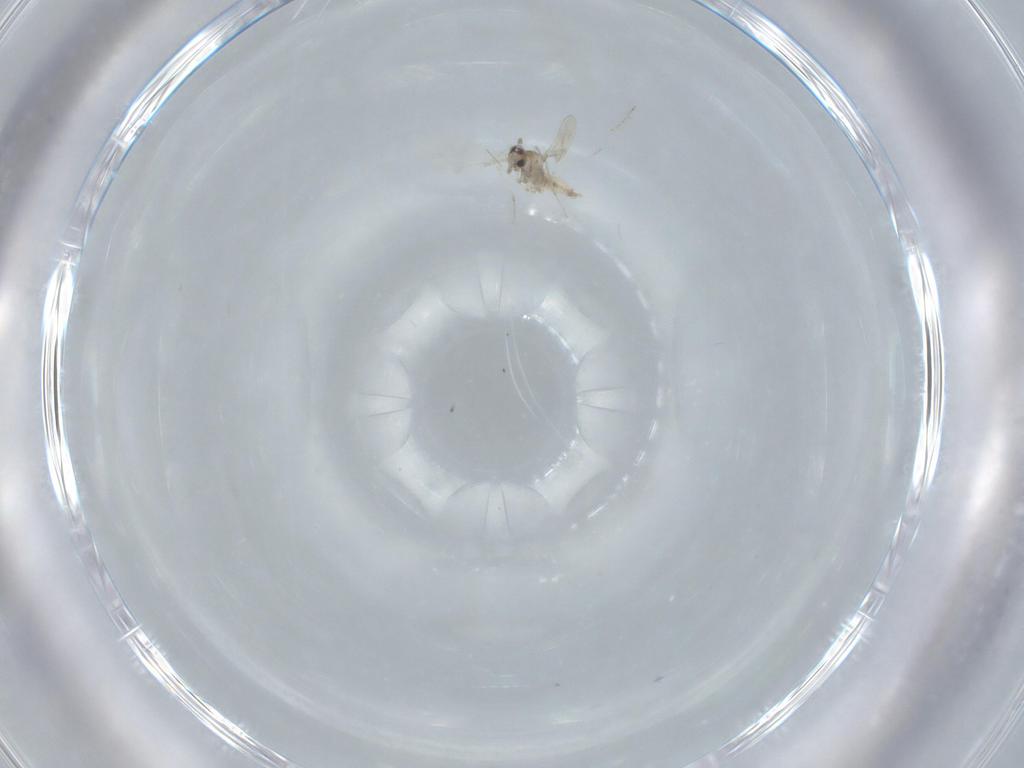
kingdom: Animalia
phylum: Arthropoda
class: Insecta
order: Diptera
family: Cecidomyiidae
